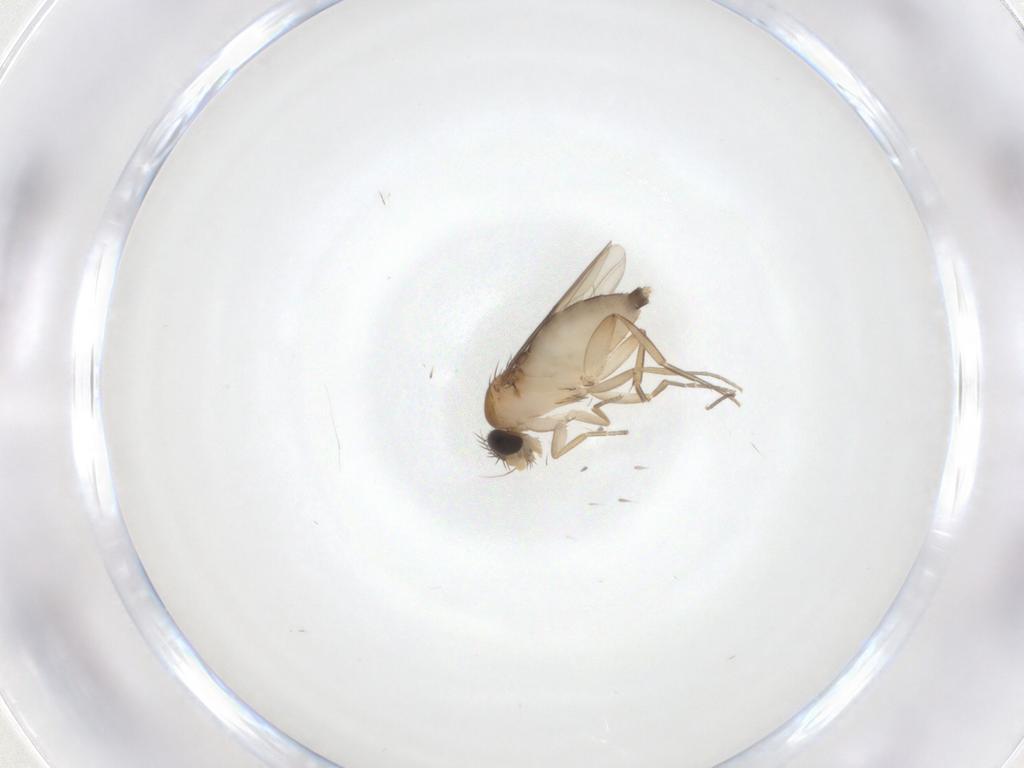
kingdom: Animalia
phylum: Arthropoda
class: Insecta
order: Diptera
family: Phoridae
